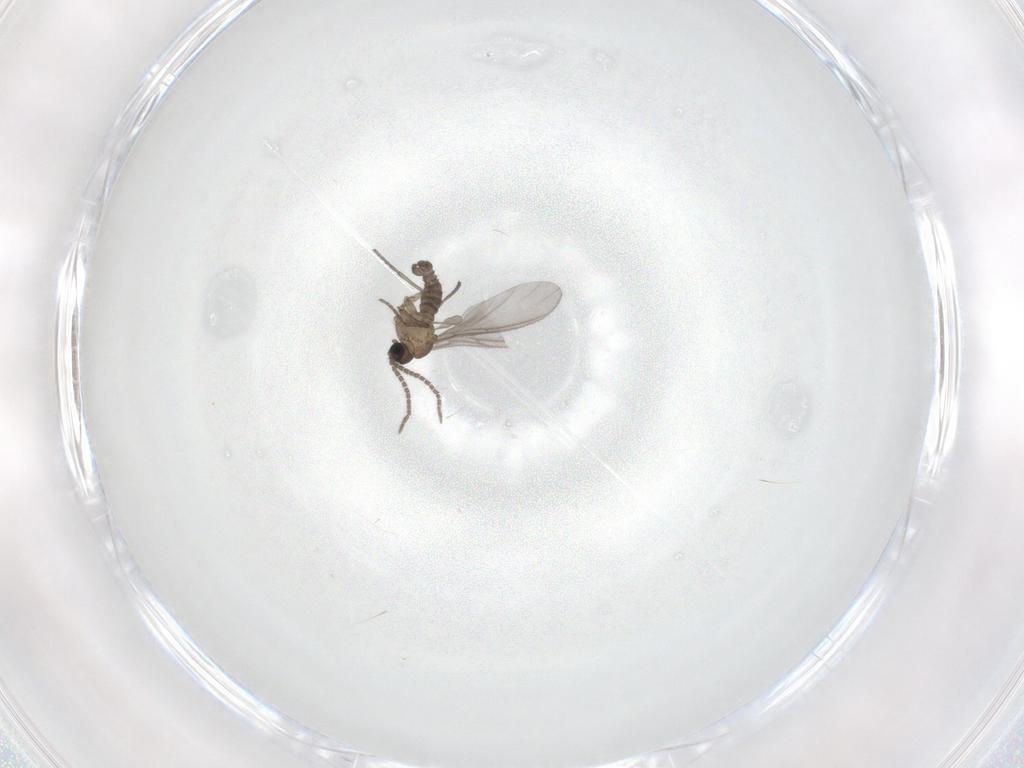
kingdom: Animalia
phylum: Arthropoda
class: Insecta
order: Diptera
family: Sciaridae
